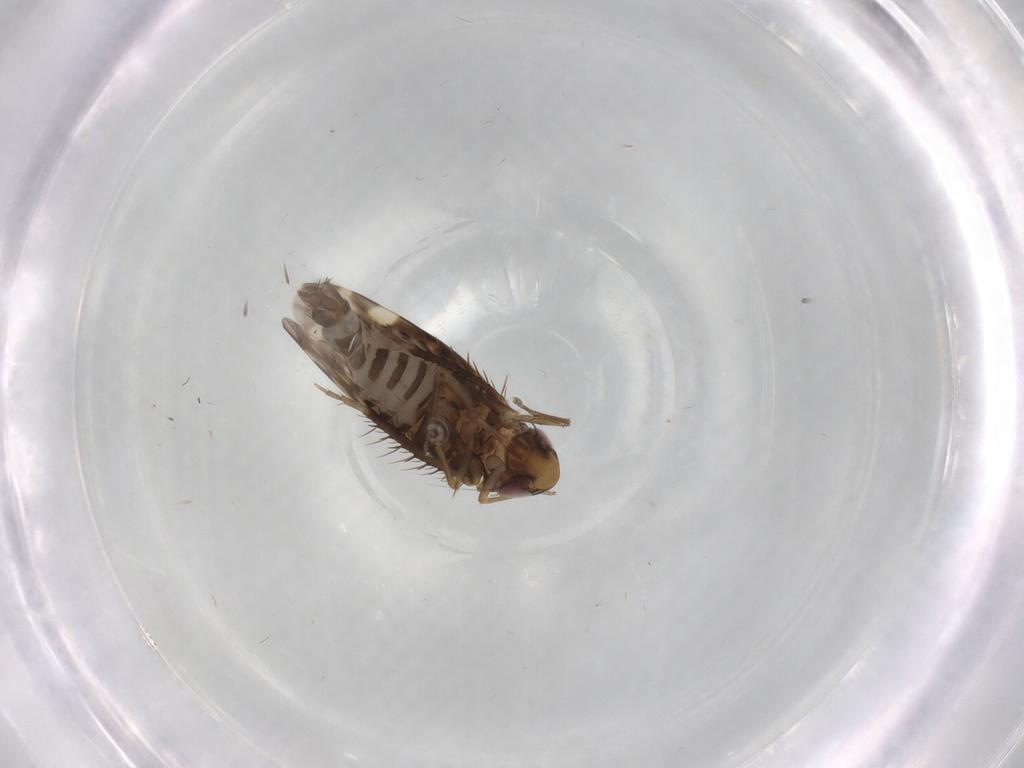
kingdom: Animalia
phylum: Arthropoda
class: Insecta
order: Hemiptera
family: Cicadellidae
